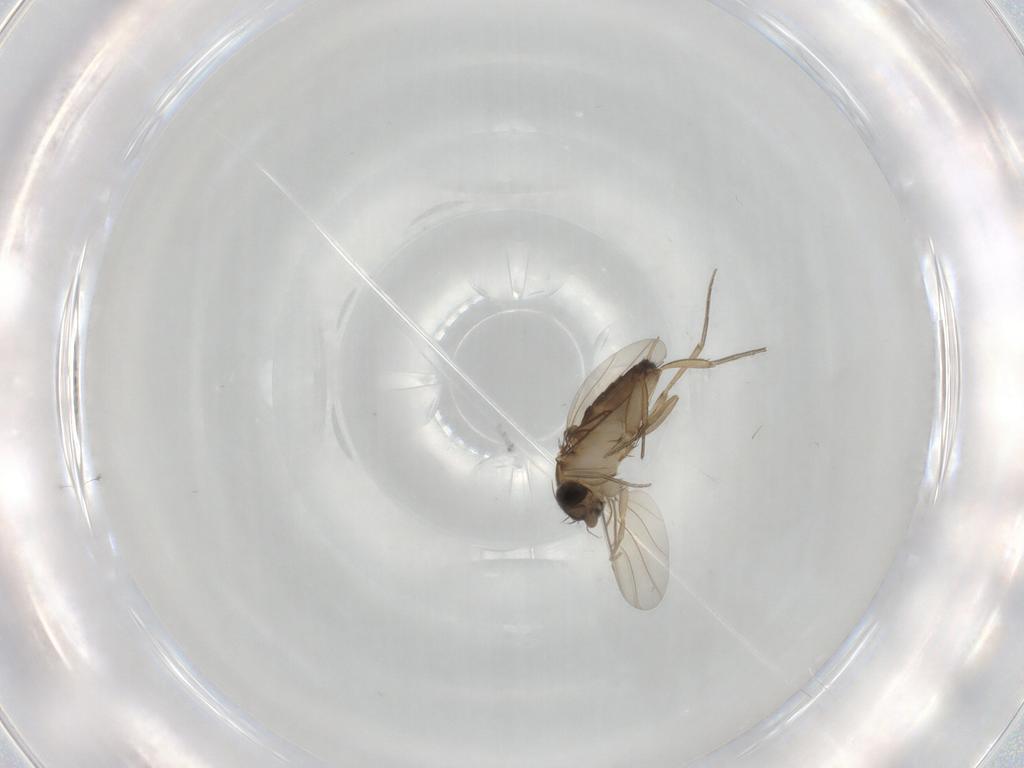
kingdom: Animalia
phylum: Arthropoda
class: Insecta
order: Diptera
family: Phoridae
